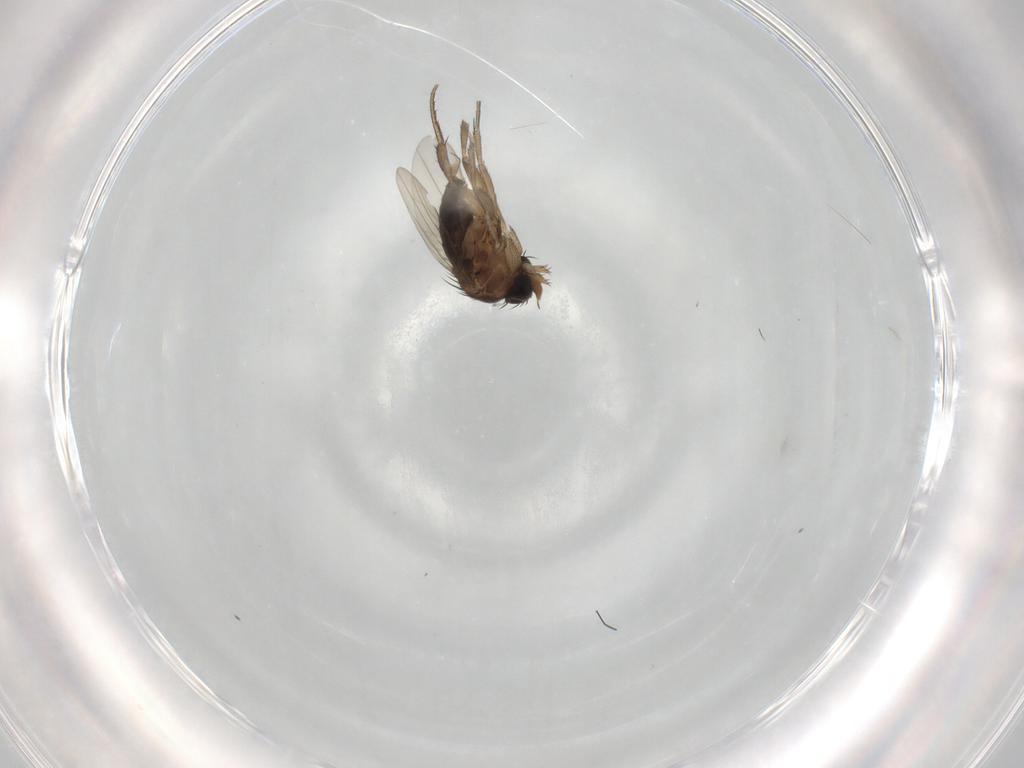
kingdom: Animalia
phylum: Arthropoda
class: Insecta
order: Diptera
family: Phoridae
